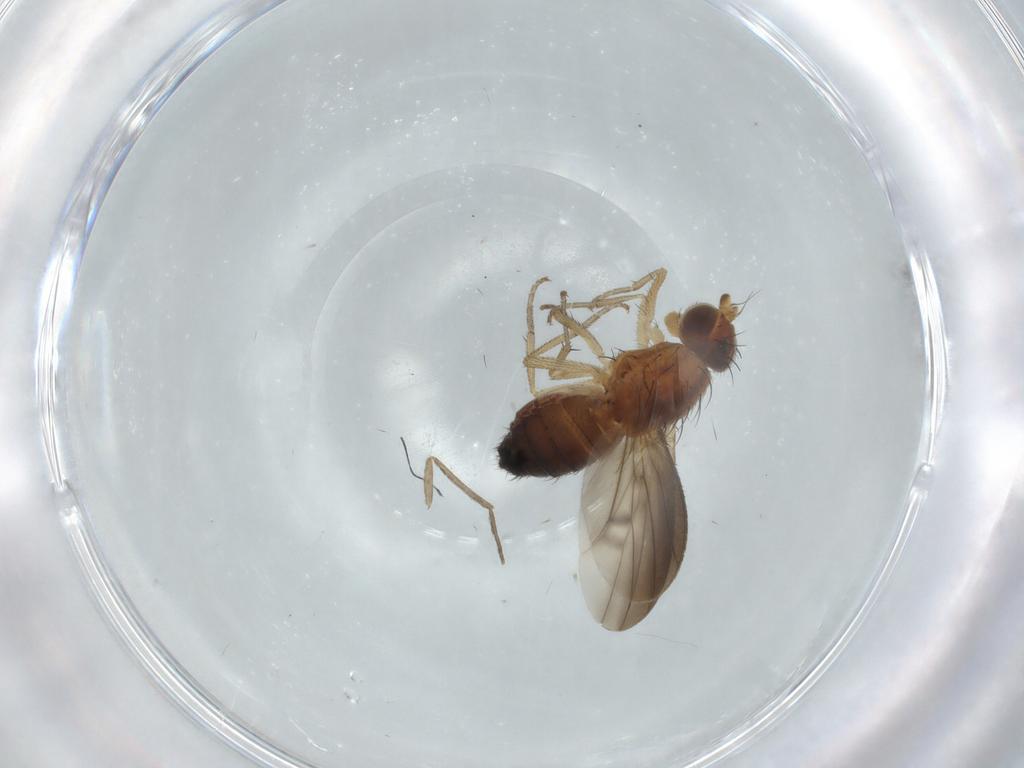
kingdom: Animalia
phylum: Arthropoda
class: Insecta
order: Diptera
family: Heleomyzidae
